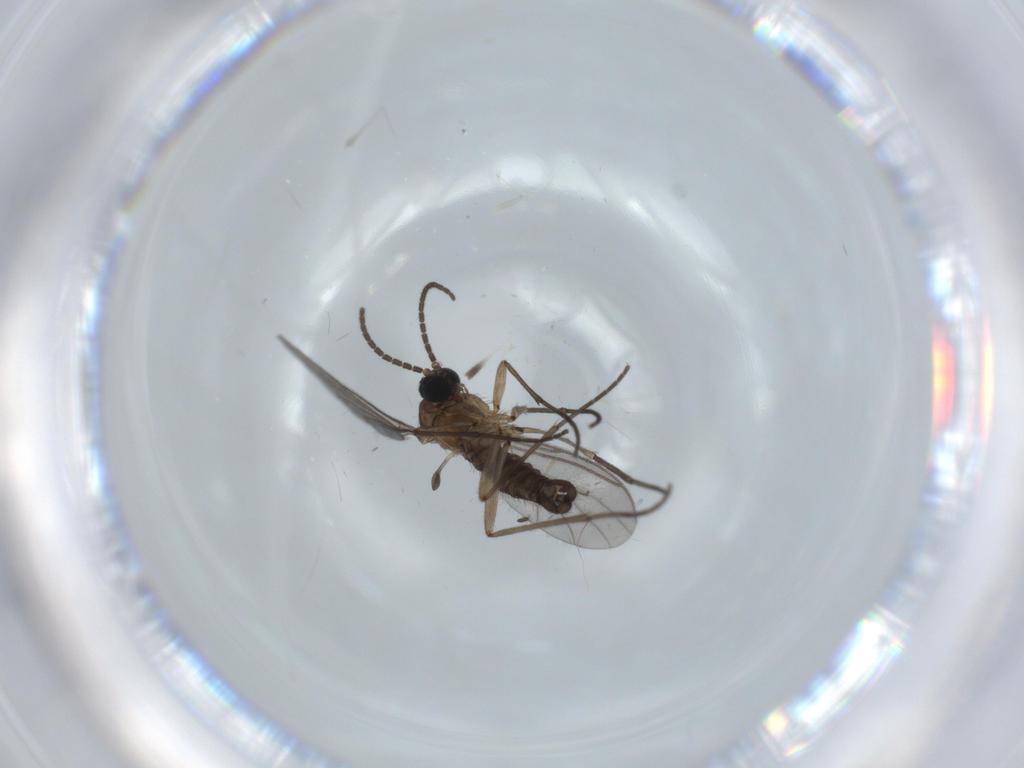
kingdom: Animalia
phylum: Arthropoda
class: Insecta
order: Diptera
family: Sciaridae
